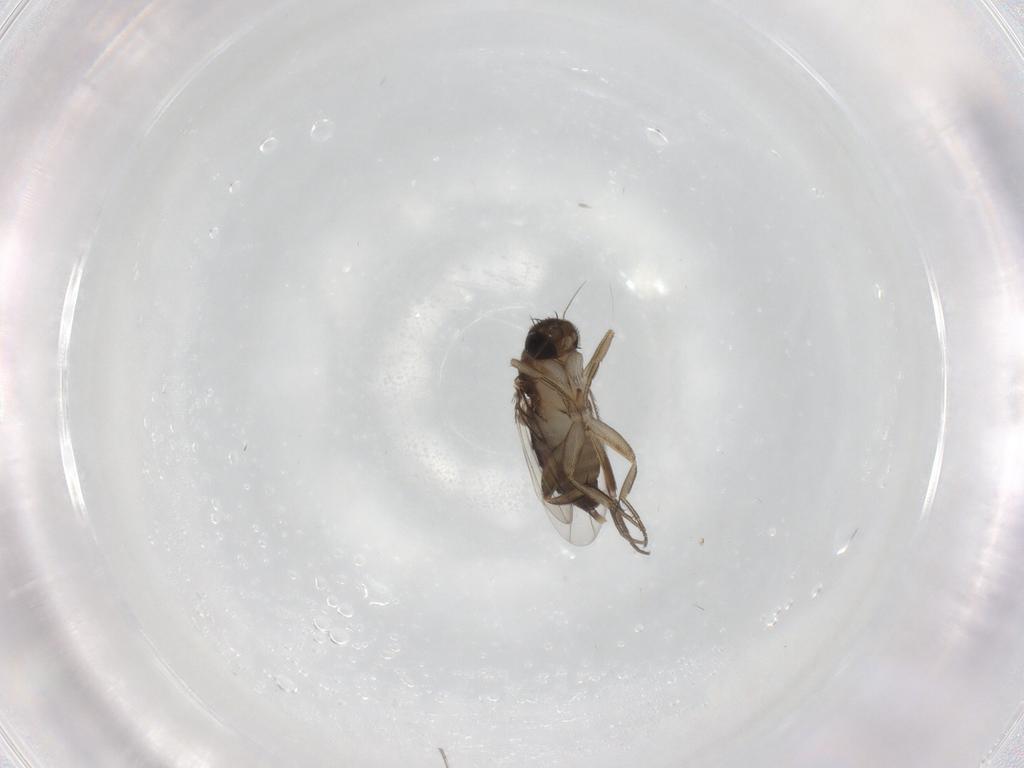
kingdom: Animalia
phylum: Arthropoda
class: Insecta
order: Diptera
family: Phoridae
